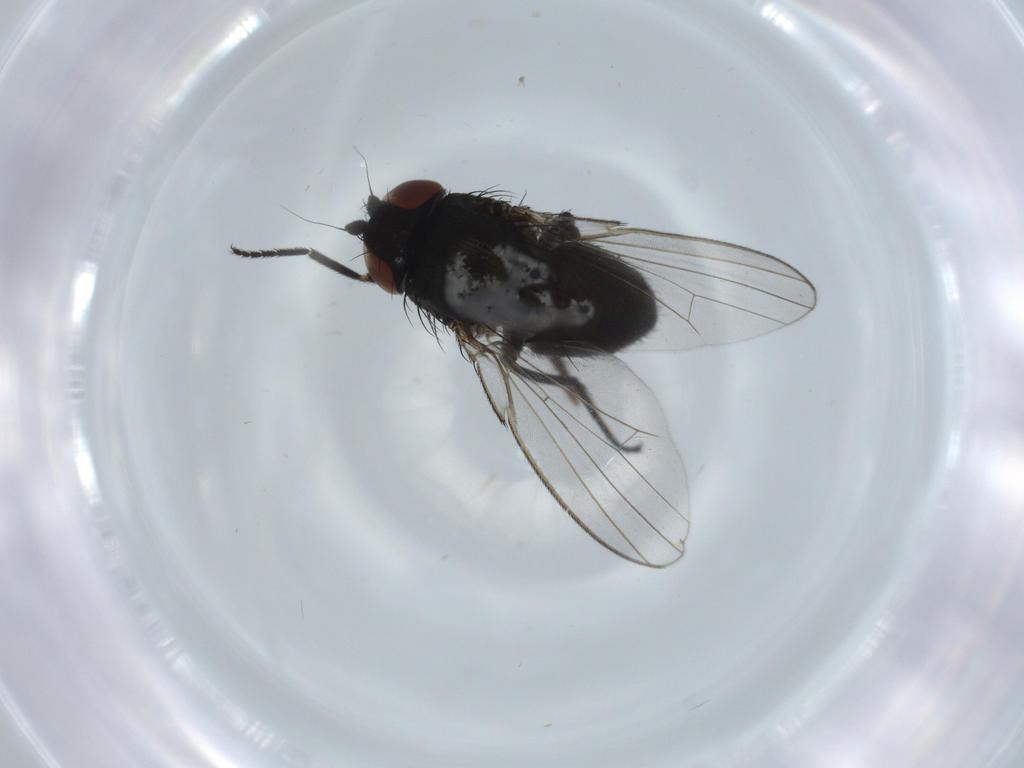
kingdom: Animalia
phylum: Arthropoda
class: Insecta
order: Diptera
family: Milichiidae
